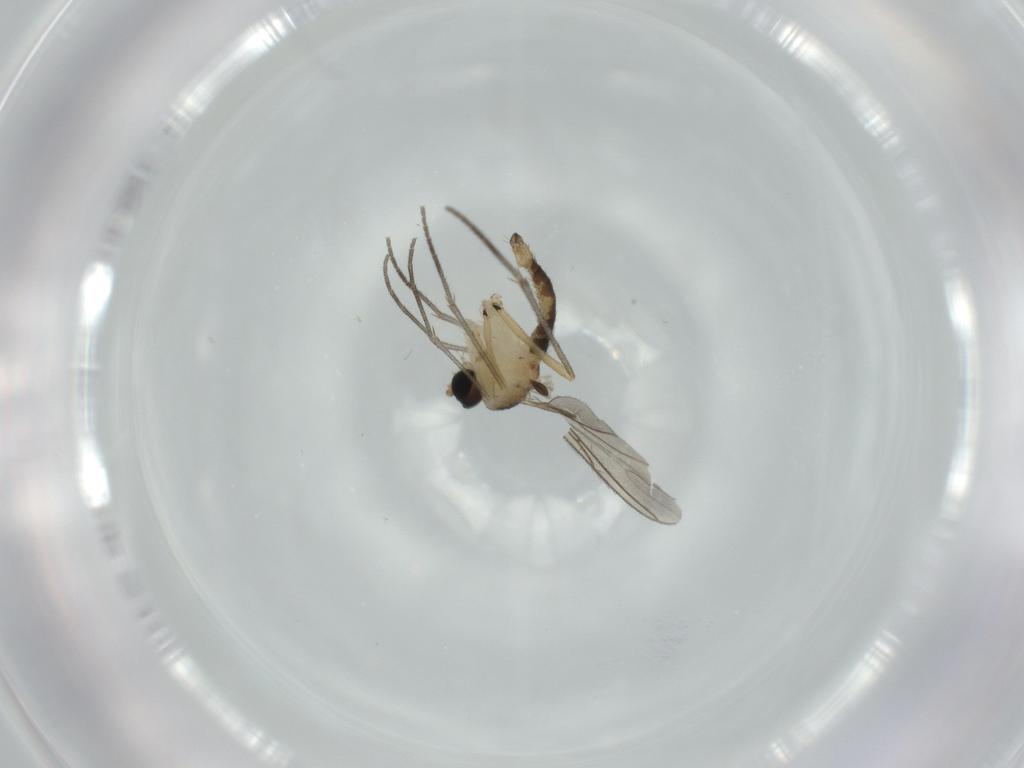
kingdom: Animalia
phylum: Arthropoda
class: Insecta
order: Diptera
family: Sciaridae
